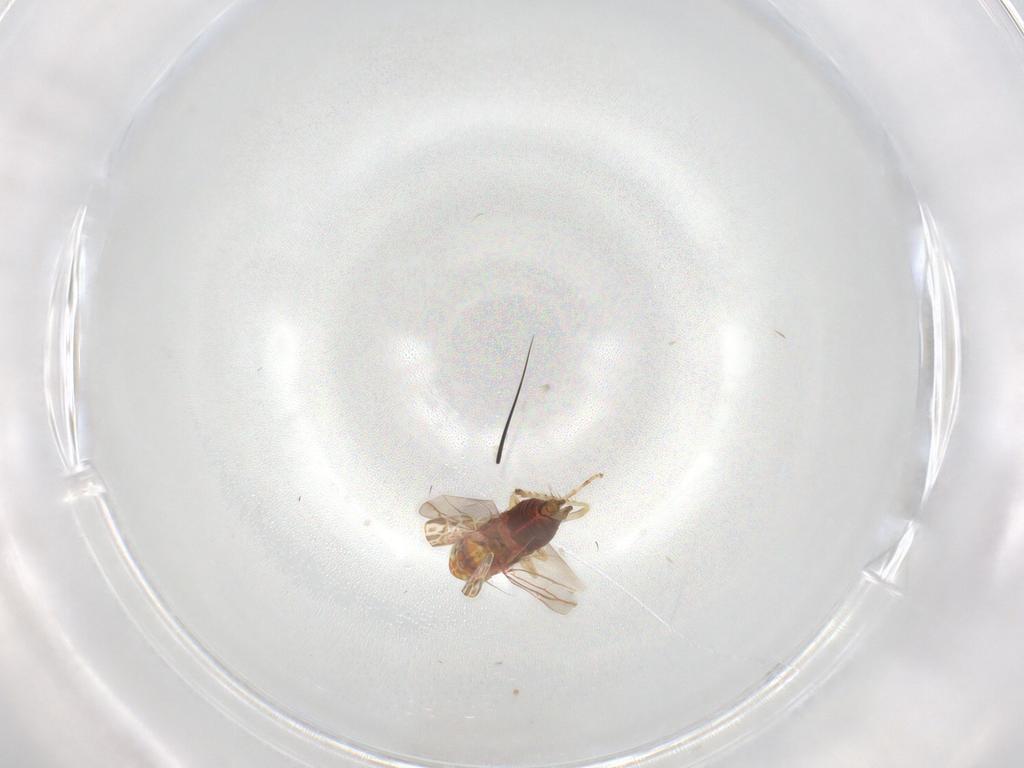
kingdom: Animalia
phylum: Arthropoda
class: Insecta
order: Hemiptera
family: Cicadellidae
